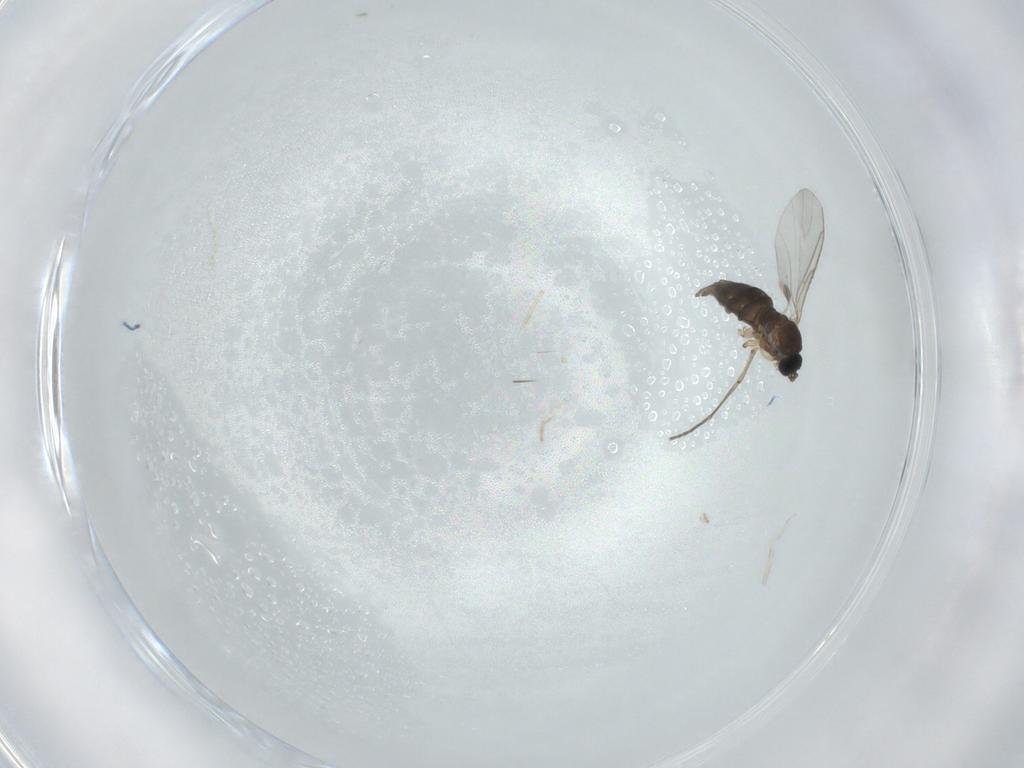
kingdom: Animalia
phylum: Arthropoda
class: Insecta
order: Diptera
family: Sciaridae
